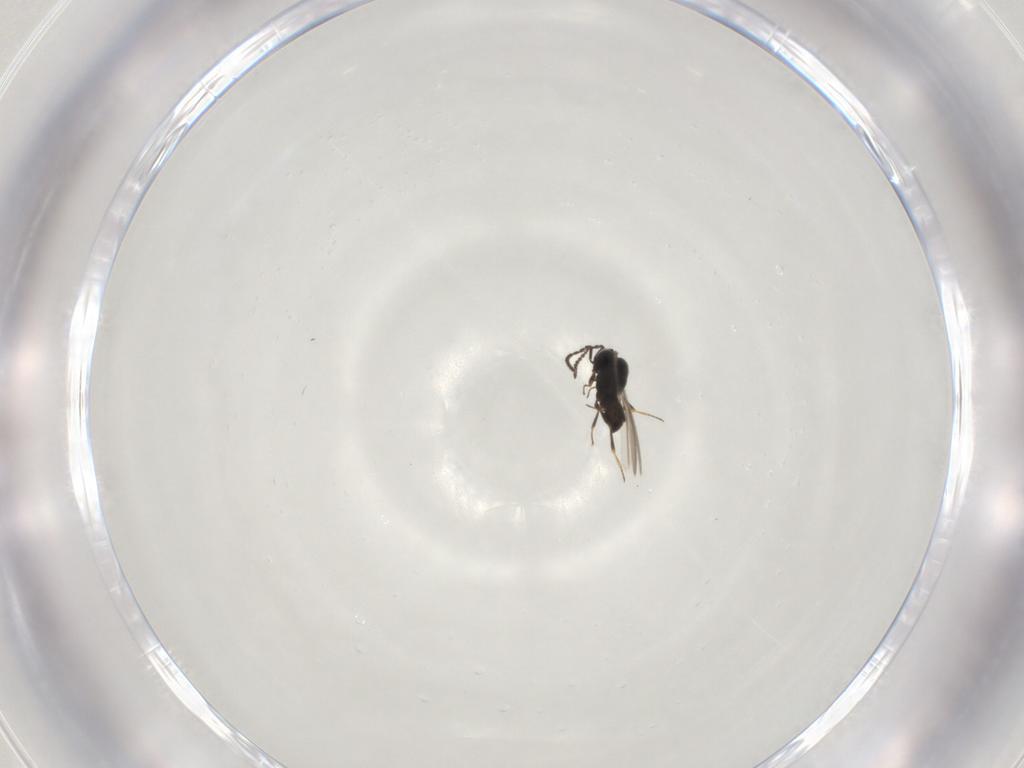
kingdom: Animalia
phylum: Arthropoda
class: Insecta
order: Hymenoptera
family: Scelionidae
